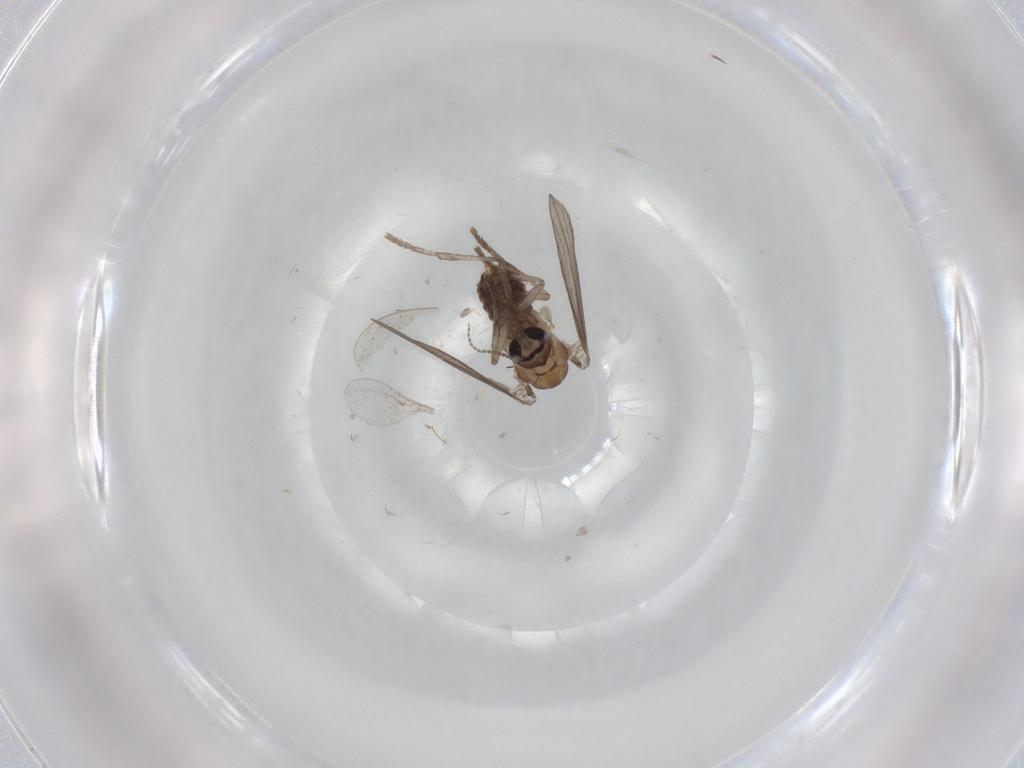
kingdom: Animalia
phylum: Arthropoda
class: Insecta
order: Diptera
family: Psychodidae
